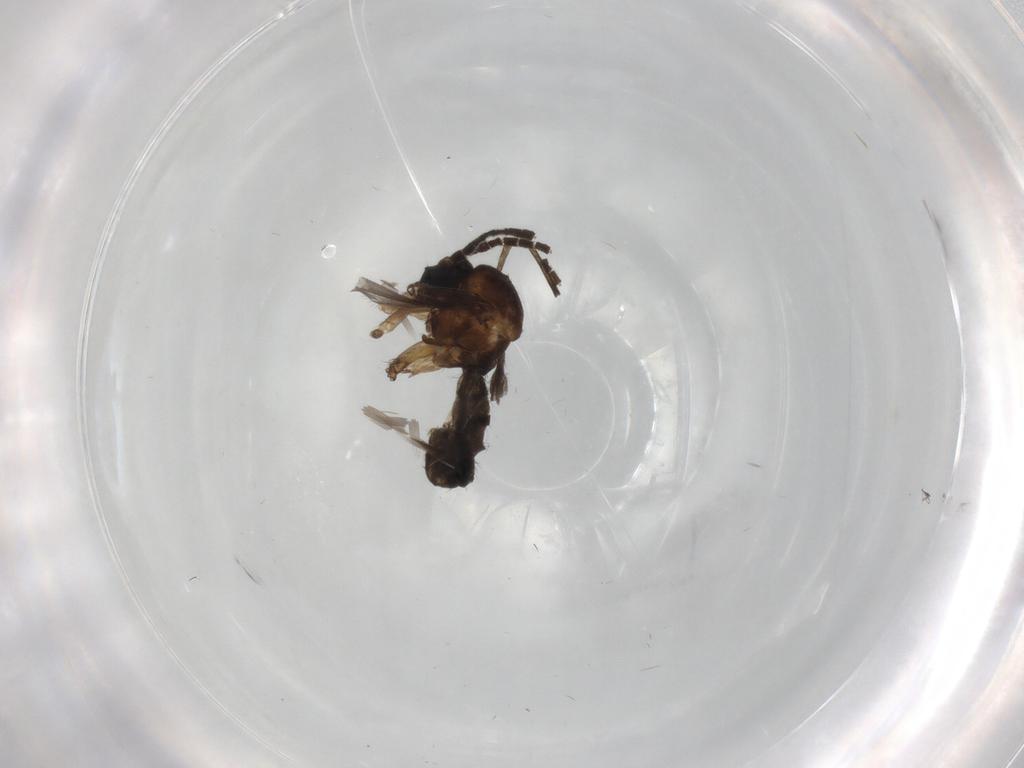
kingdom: Animalia
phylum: Arthropoda
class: Insecta
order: Diptera
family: Sciaridae
